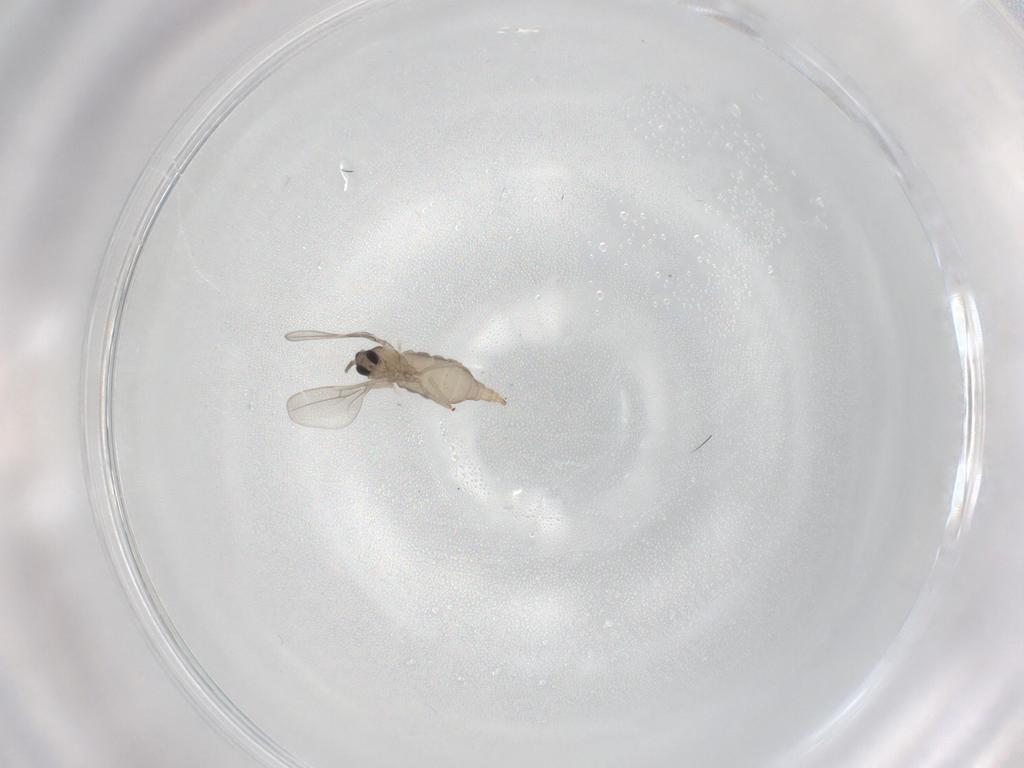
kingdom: Animalia
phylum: Arthropoda
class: Insecta
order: Diptera
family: Cecidomyiidae
